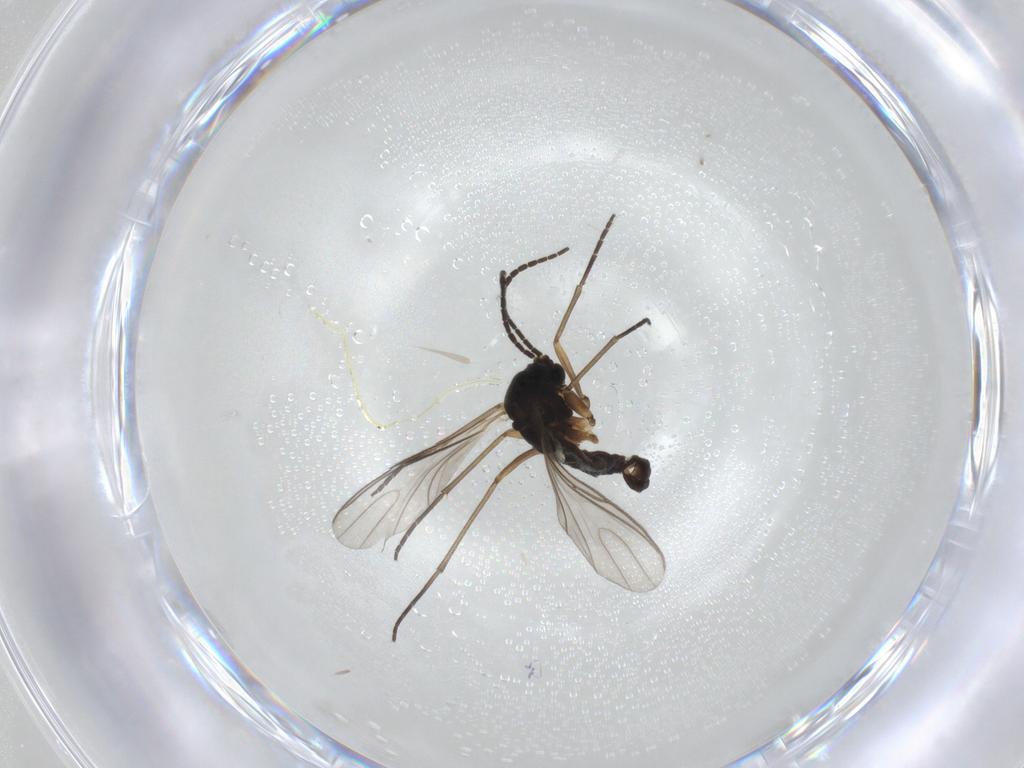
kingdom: Animalia
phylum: Arthropoda
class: Insecta
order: Diptera
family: Sciaridae
